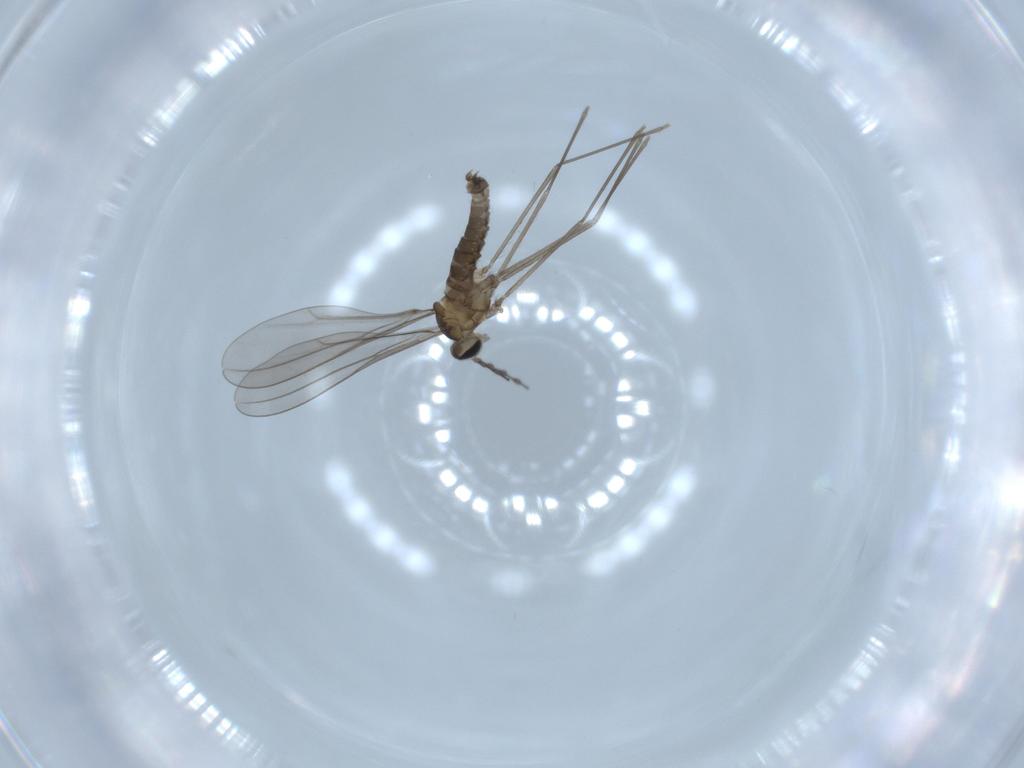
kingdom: Animalia
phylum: Arthropoda
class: Insecta
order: Diptera
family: Cecidomyiidae
